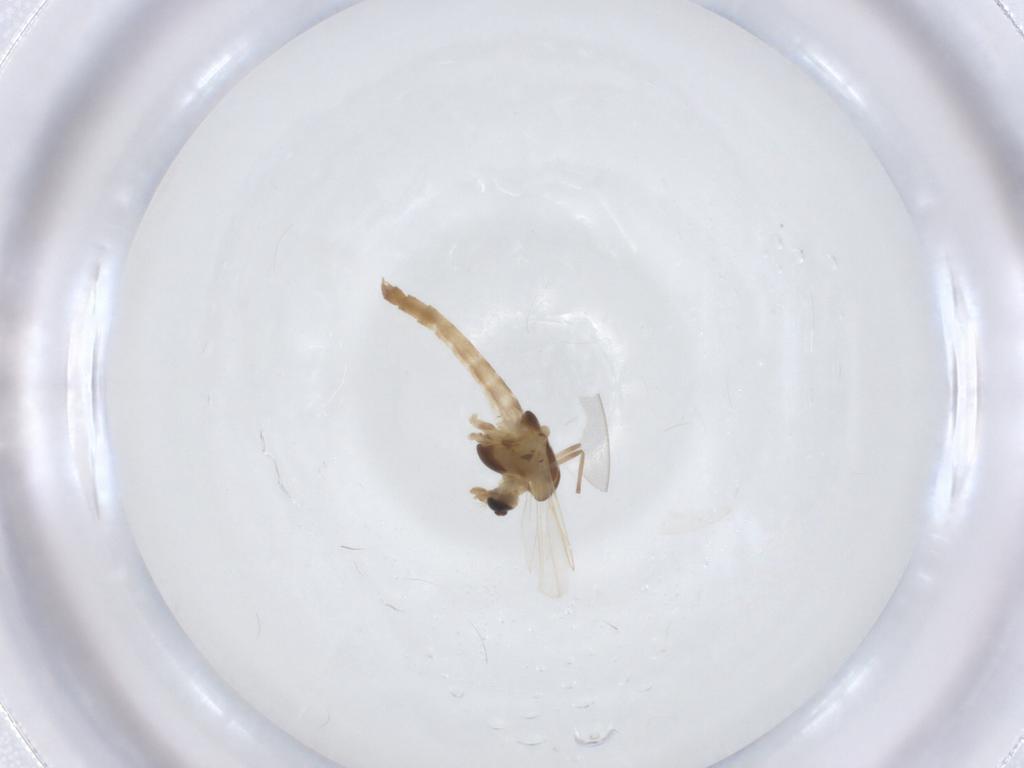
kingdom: Animalia
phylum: Arthropoda
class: Insecta
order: Diptera
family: Chironomidae
